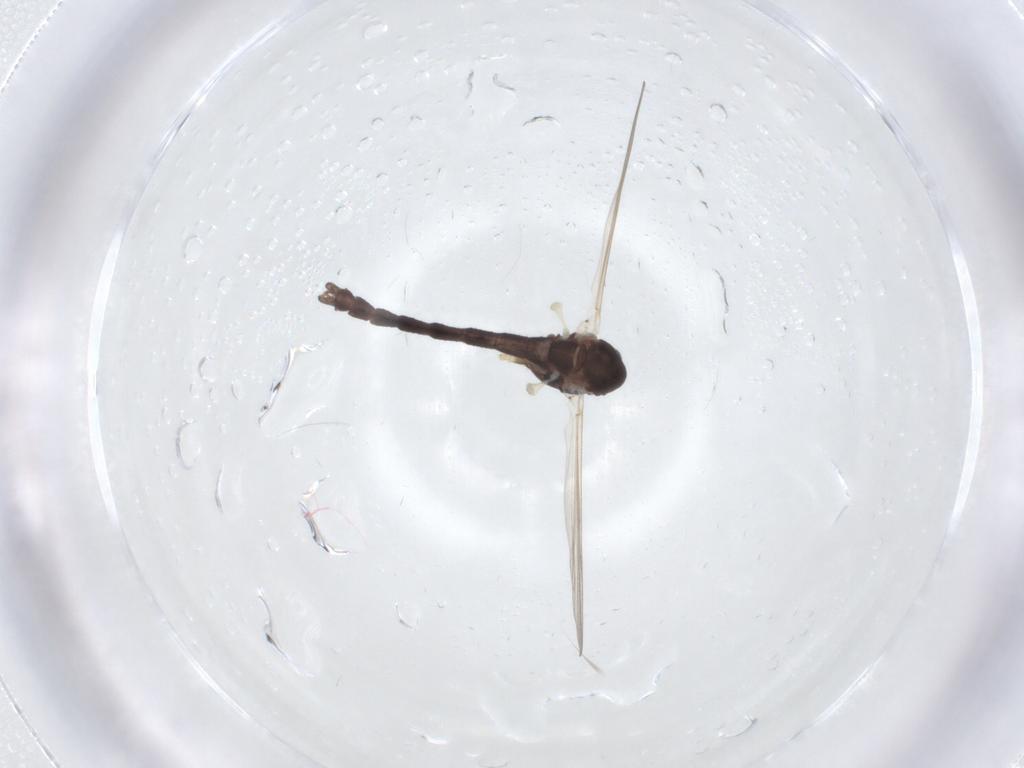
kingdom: Animalia
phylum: Arthropoda
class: Insecta
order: Diptera
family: Chironomidae
